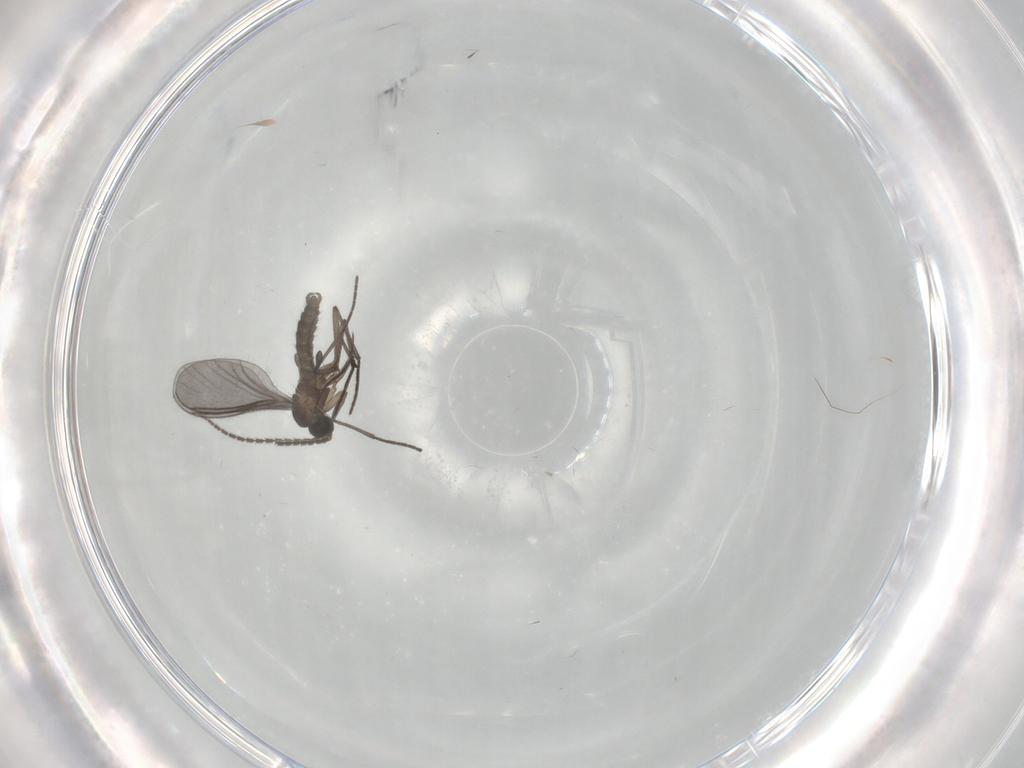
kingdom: Animalia
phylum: Arthropoda
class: Insecta
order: Diptera
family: Sciaridae
